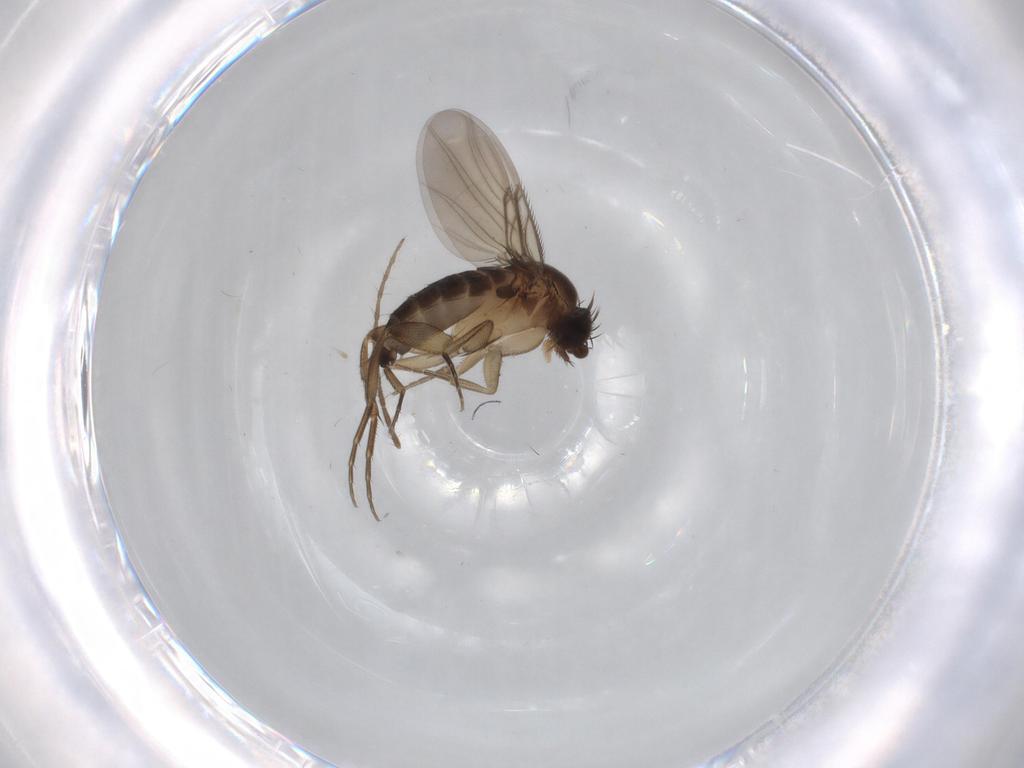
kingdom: Animalia
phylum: Arthropoda
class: Insecta
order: Diptera
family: Phoridae
